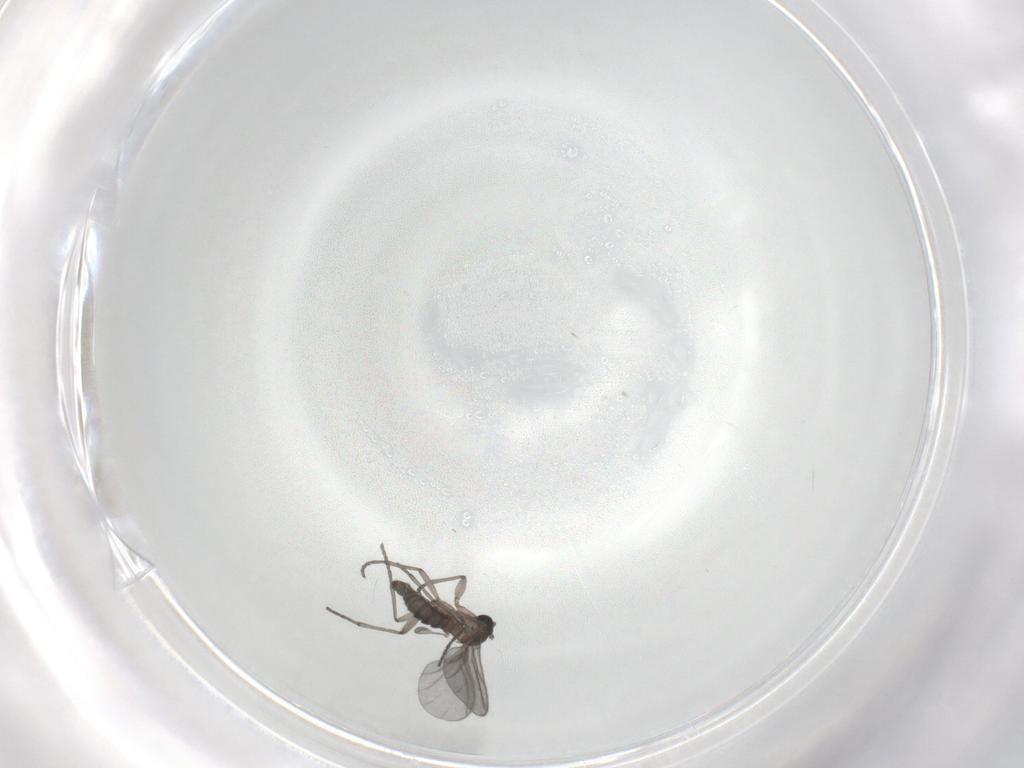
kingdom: Animalia
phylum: Arthropoda
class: Insecta
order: Diptera
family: Sciaridae
